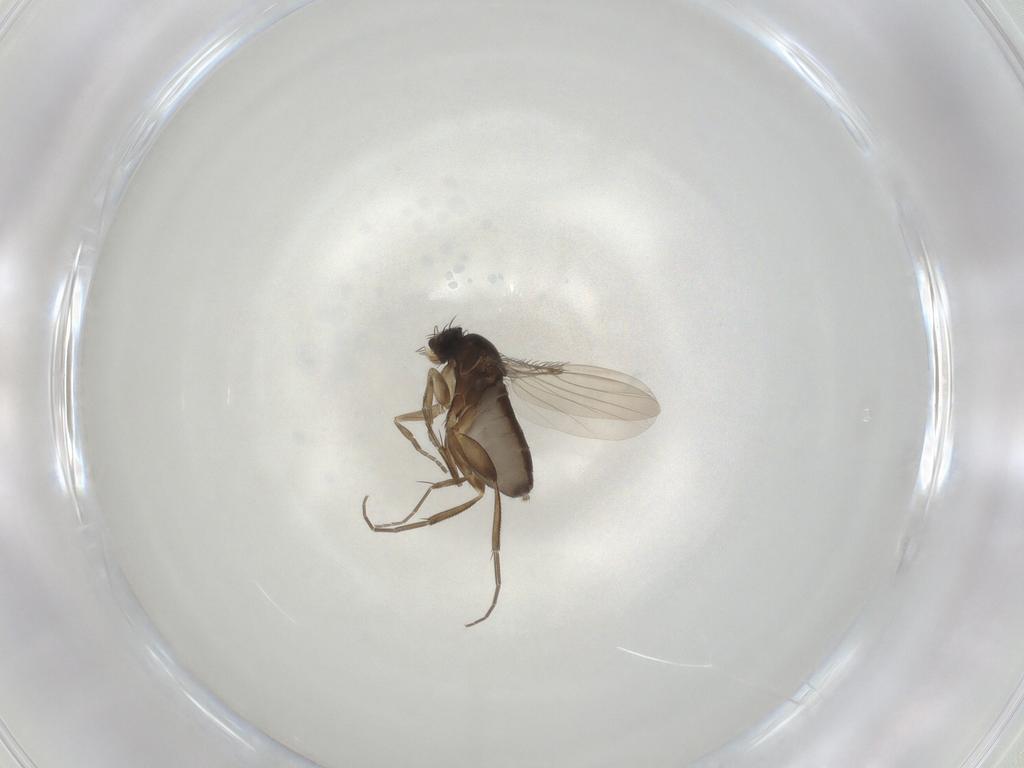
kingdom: Animalia
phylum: Arthropoda
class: Insecta
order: Diptera
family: Phoridae
